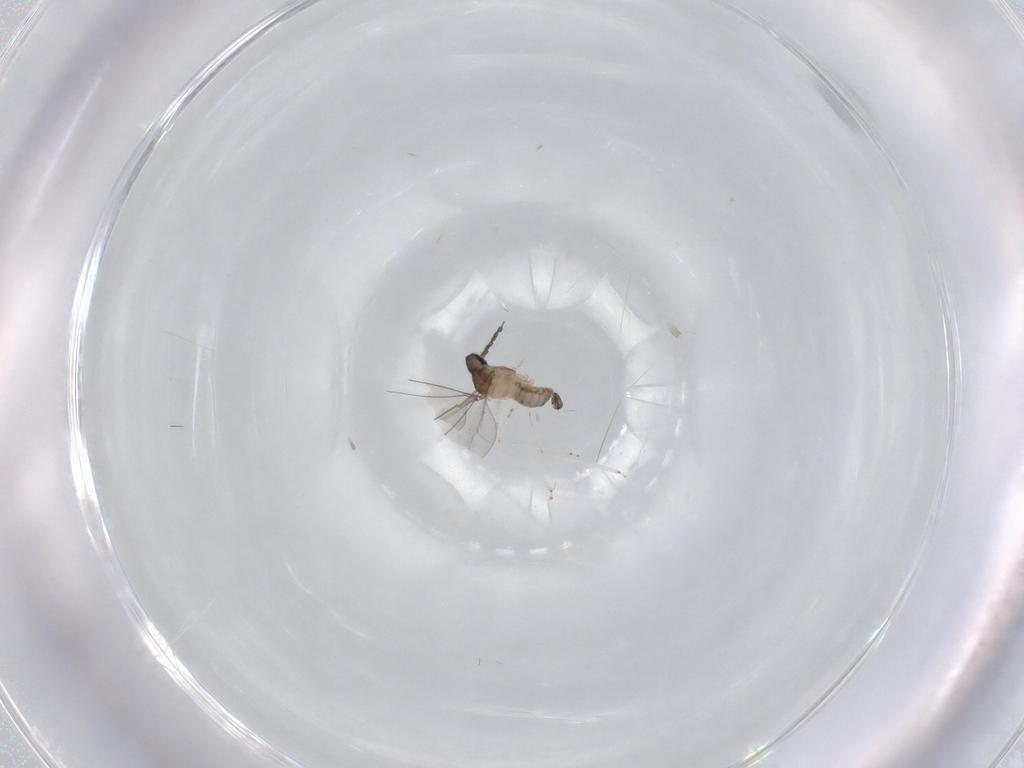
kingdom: Animalia
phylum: Arthropoda
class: Insecta
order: Diptera
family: Cecidomyiidae
